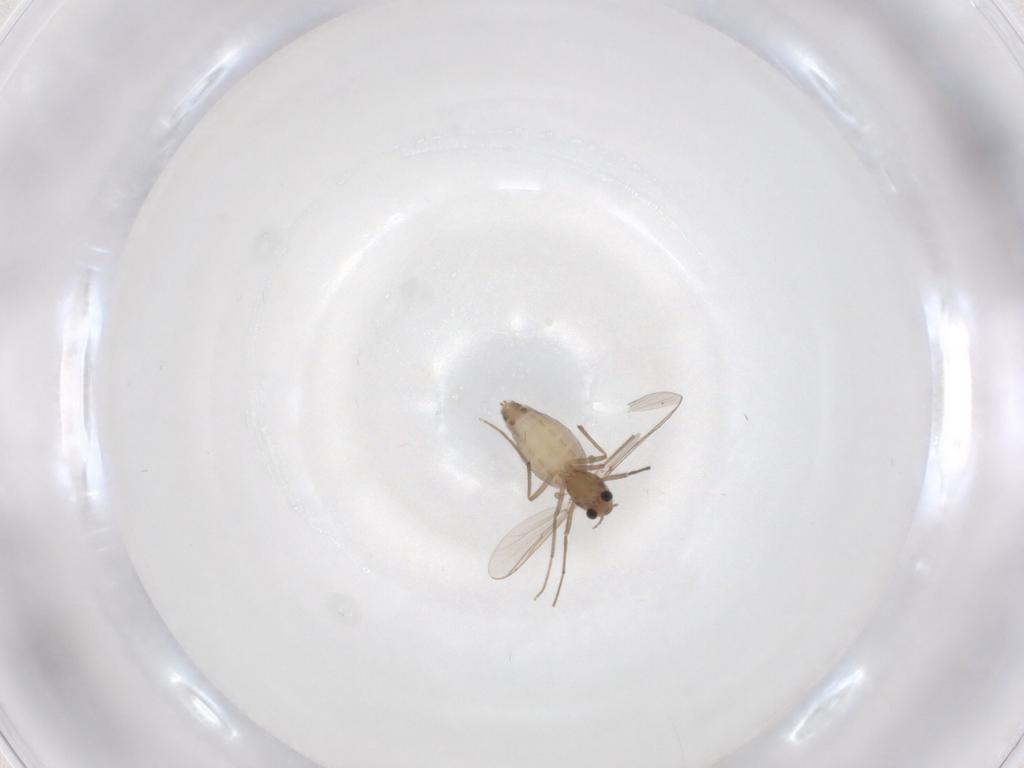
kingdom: Animalia
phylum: Arthropoda
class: Insecta
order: Diptera
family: Chironomidae
